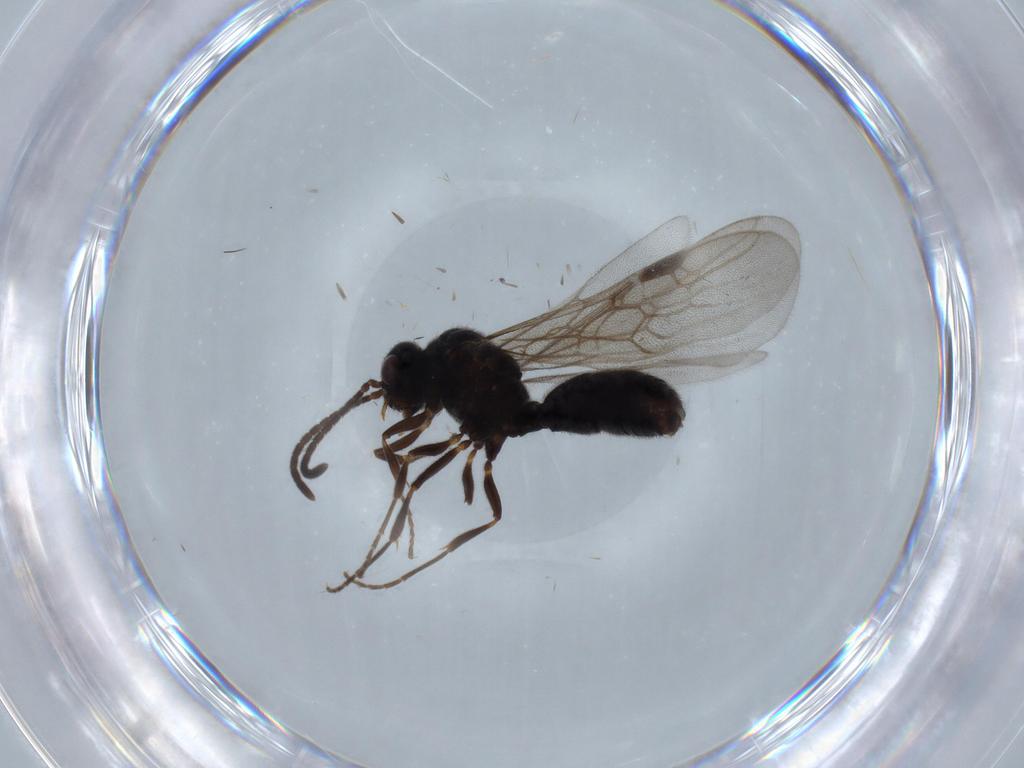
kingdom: Animalia
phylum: Arthropoda
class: Insecta
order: Hymenoptera
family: Formicidae
